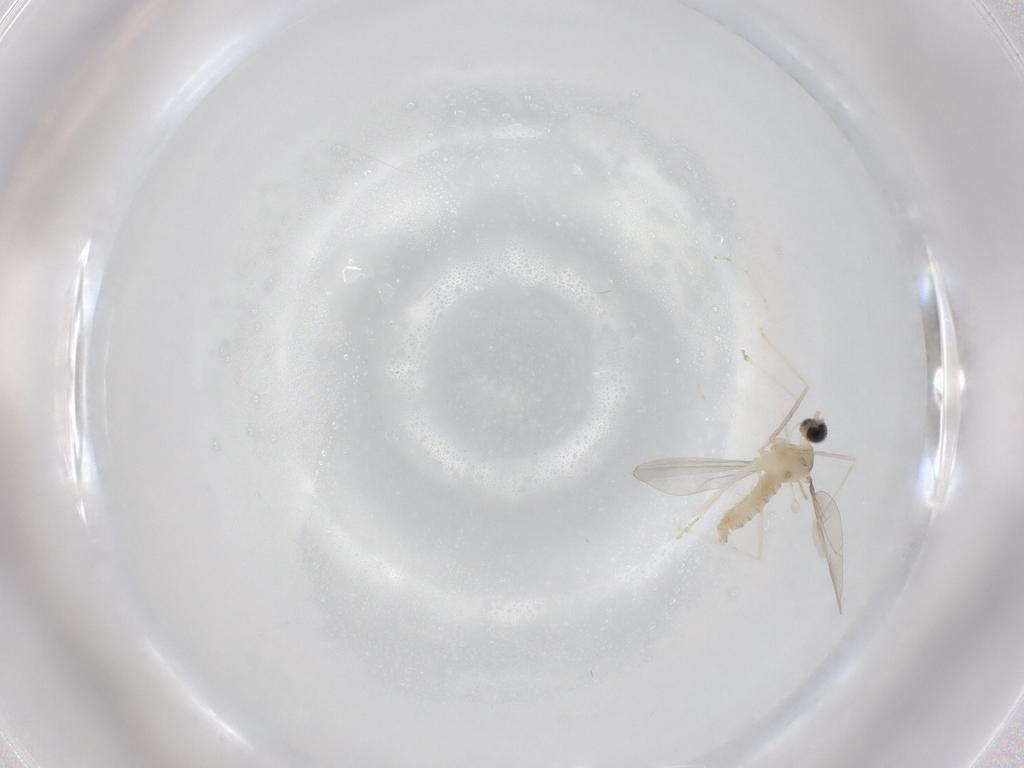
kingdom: Animalia
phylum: Arthropoda
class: Insecta
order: Diptera
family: Cecidomyiidae
